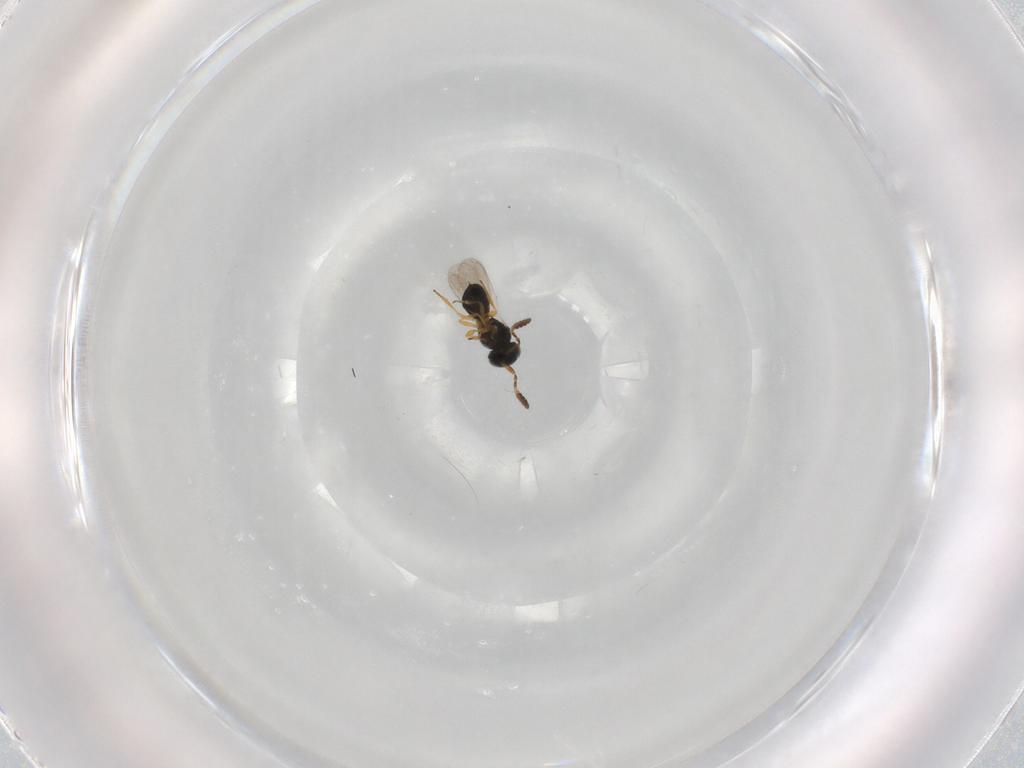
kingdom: Animalia
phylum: Arthropoda
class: Insecta
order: Hymenoptera
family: Scelionidae
